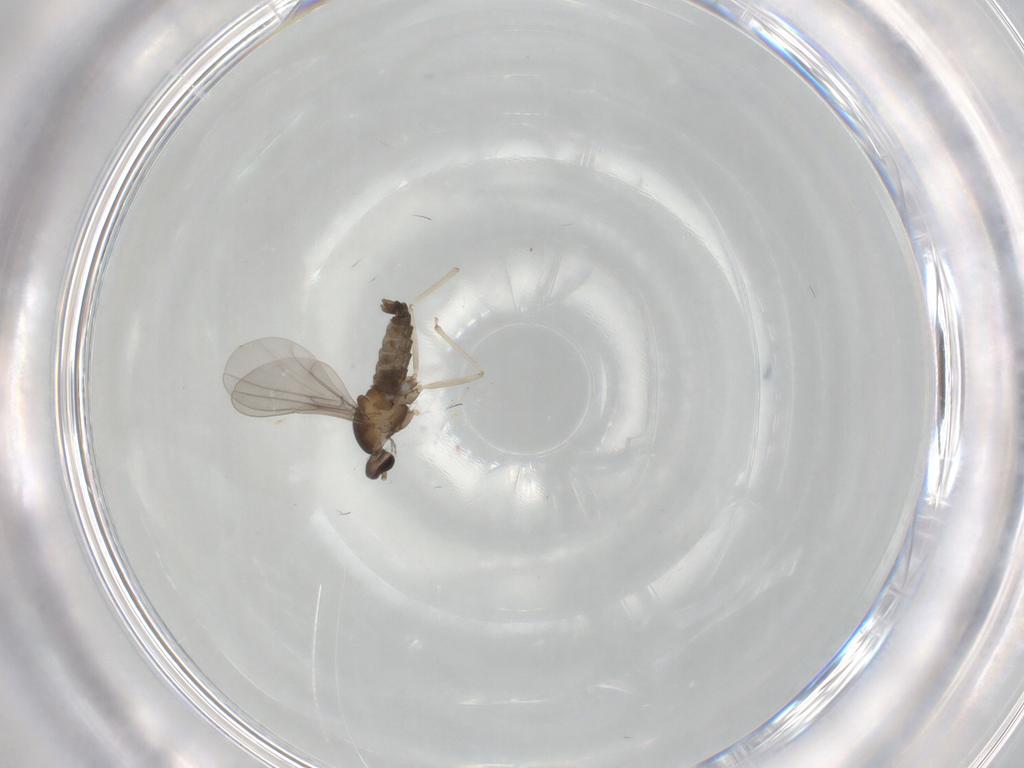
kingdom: Animalia
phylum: Arthropoda
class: Insecta
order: Diptera
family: Cecidomyiidae
